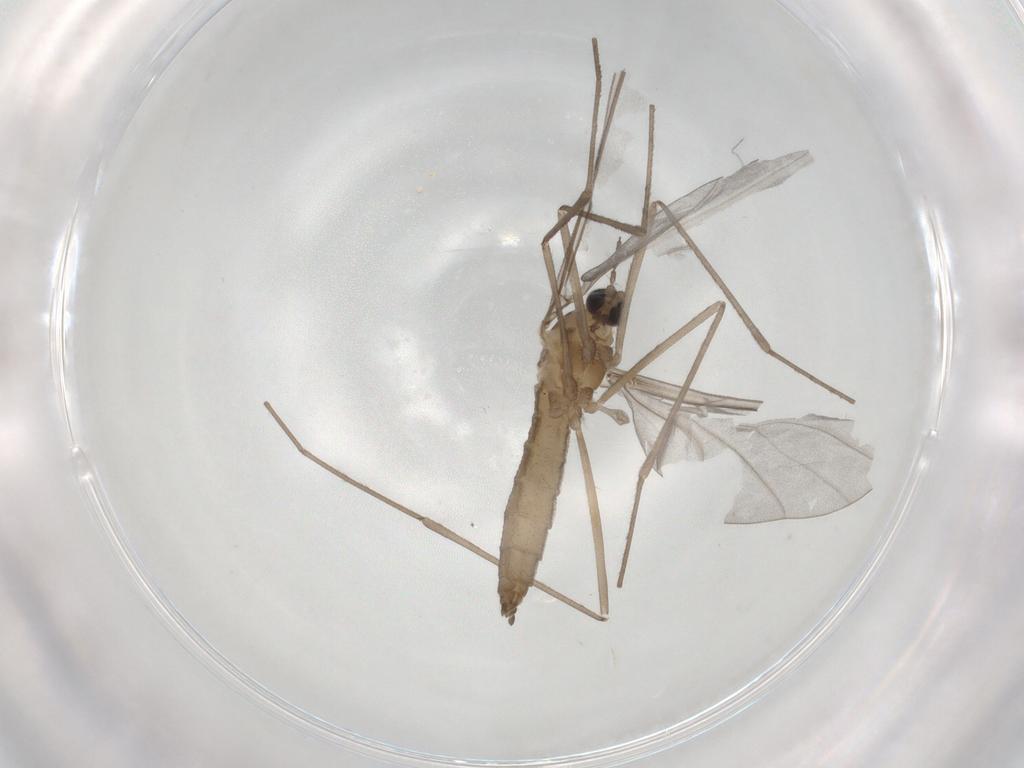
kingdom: Animalia
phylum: Arthropoda
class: Insecta
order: Diptera
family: Cecidomyiidae
